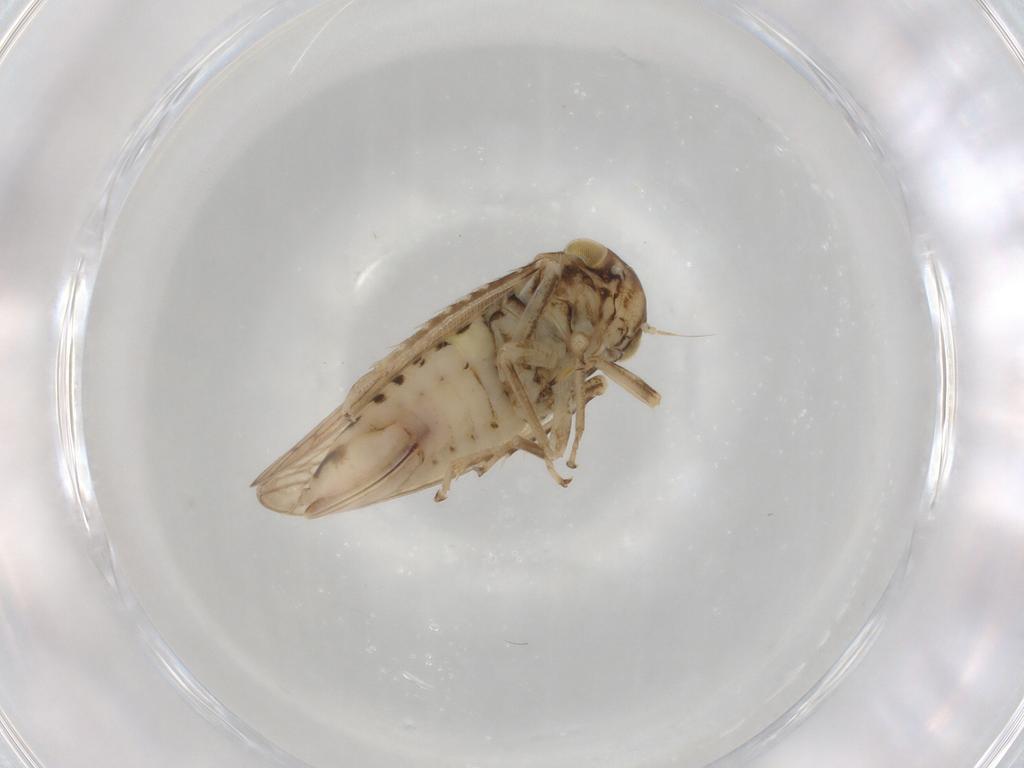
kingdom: Animalia
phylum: Arthropoda
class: Insecta
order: Hemiptera
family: Cicadellidae
